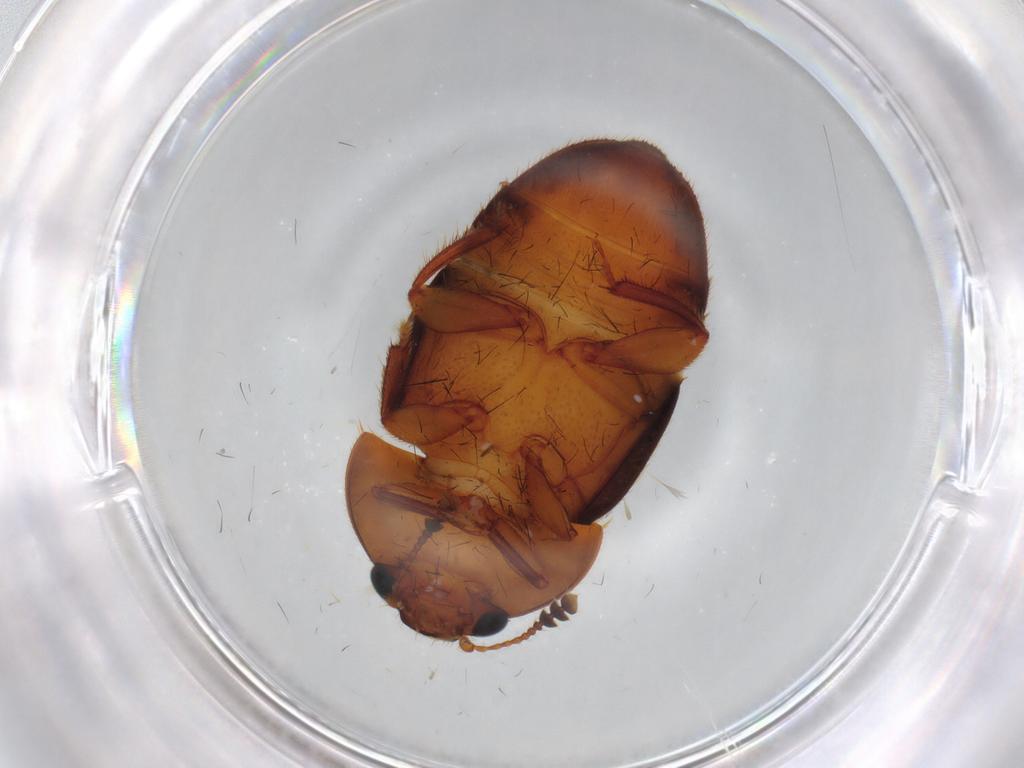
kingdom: Animalia
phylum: Arthropoda
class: Insecta
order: Coleoptera
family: Nitidulidae
